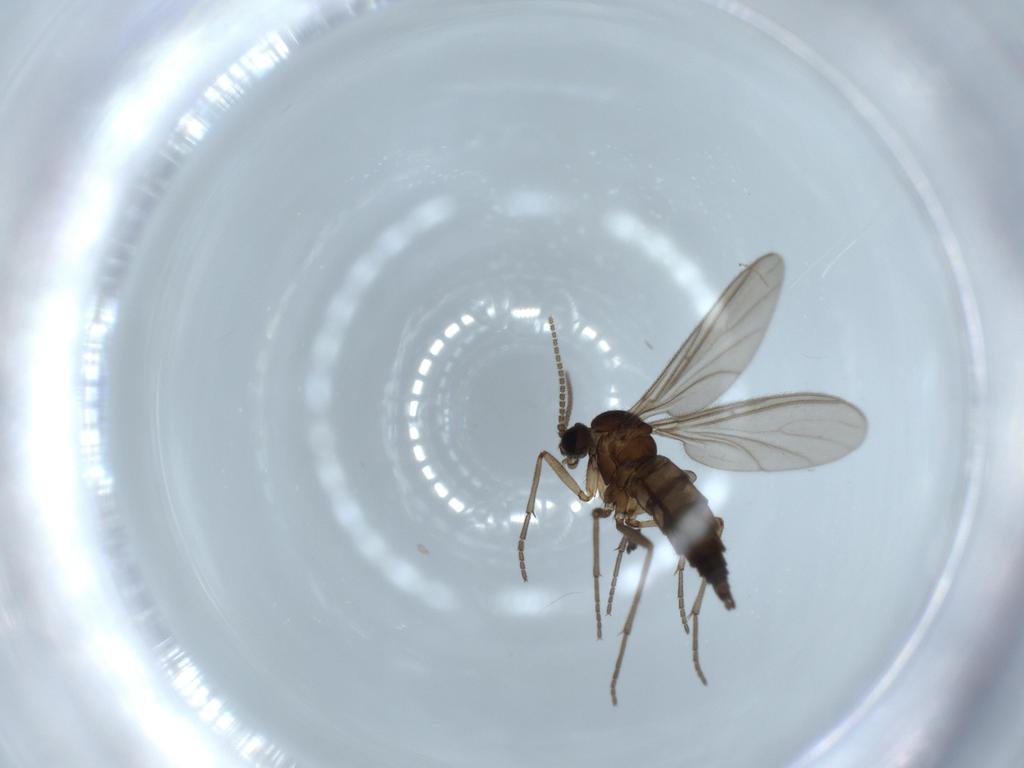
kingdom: Animalia
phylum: Arthropoda
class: Insecta
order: Diptera
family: Sciaridae
